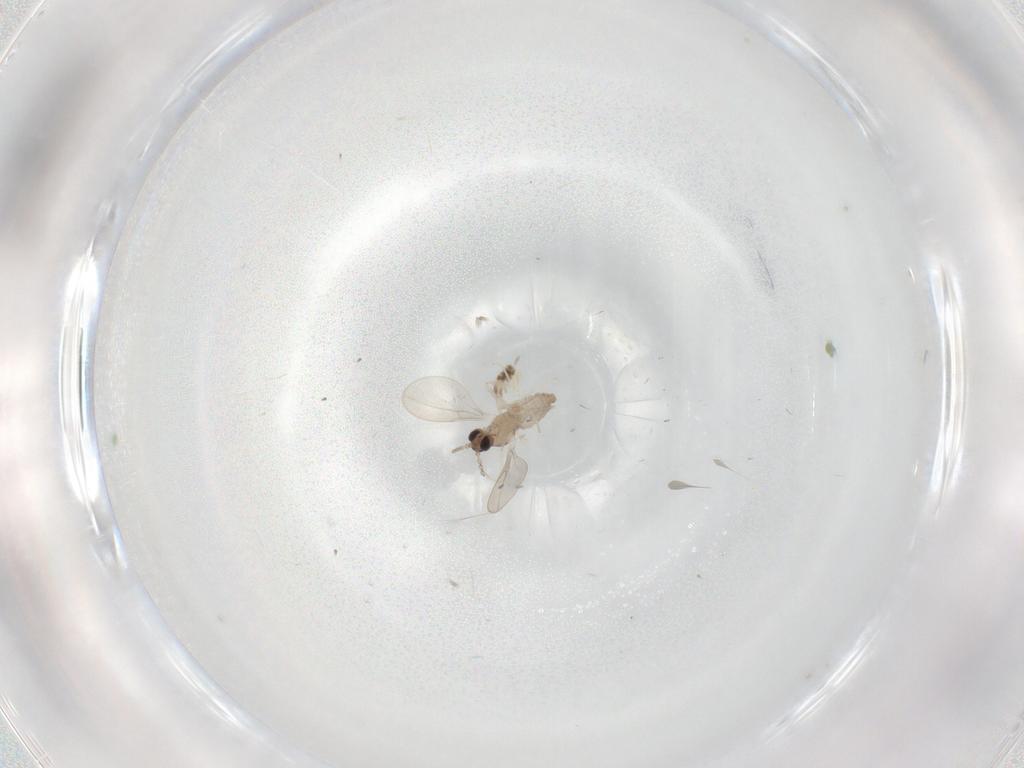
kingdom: Animalia
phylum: Arthropoda
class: Insecta
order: Diptera
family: Cecidomyiidae
